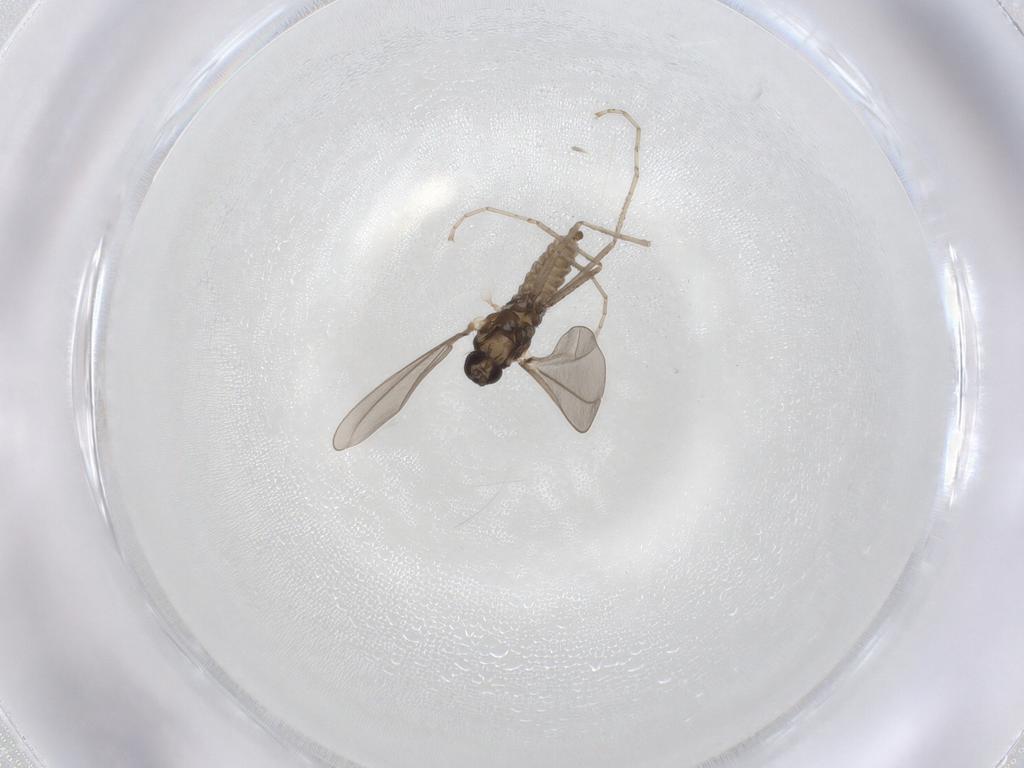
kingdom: Animalia
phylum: Arthropoda
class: Insecta
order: Diptera
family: Cecidomyiidae
